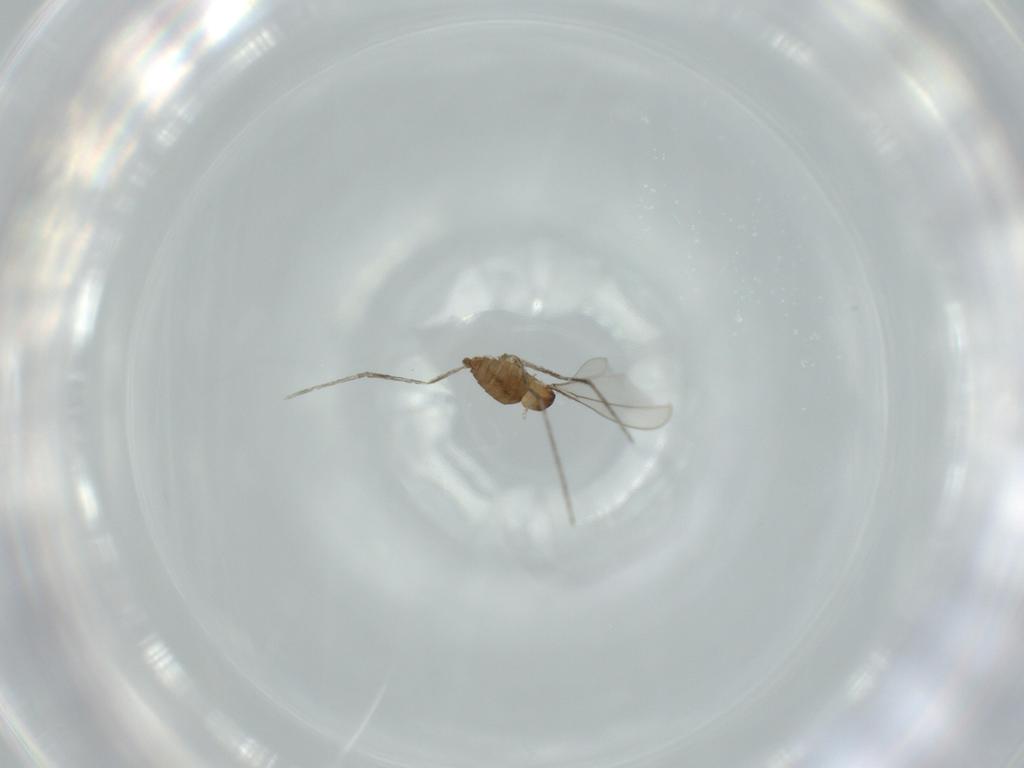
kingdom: Animalia
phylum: Arthropoda
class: Insecta
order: Diptera
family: Cecidomyiidae
